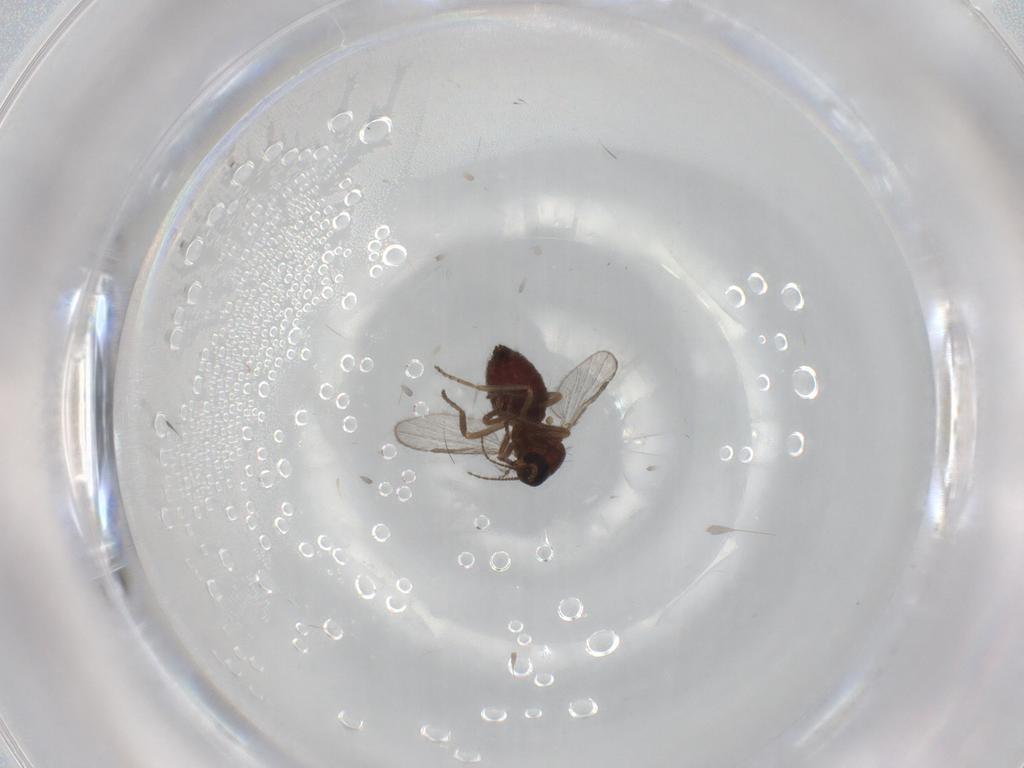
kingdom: Animalia
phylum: Arthropoda
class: Insecta
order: Diptera
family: Ceratopogonidae
